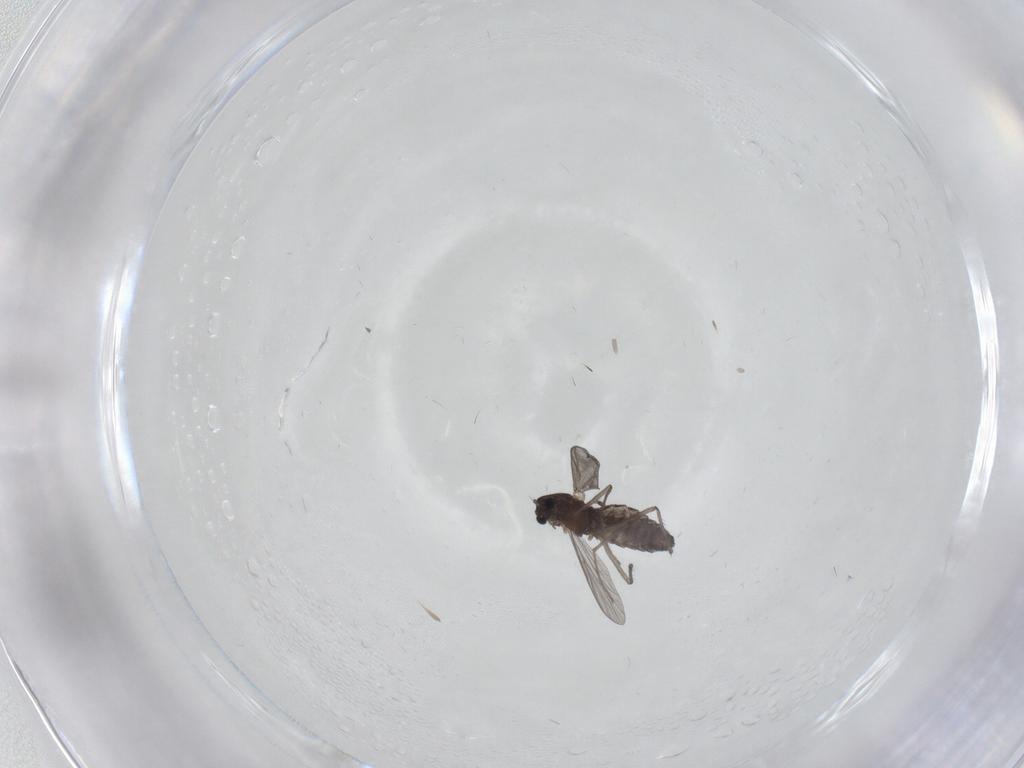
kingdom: Animalia
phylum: Arthropoda
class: Insecta
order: Diptera
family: Chironomidae
